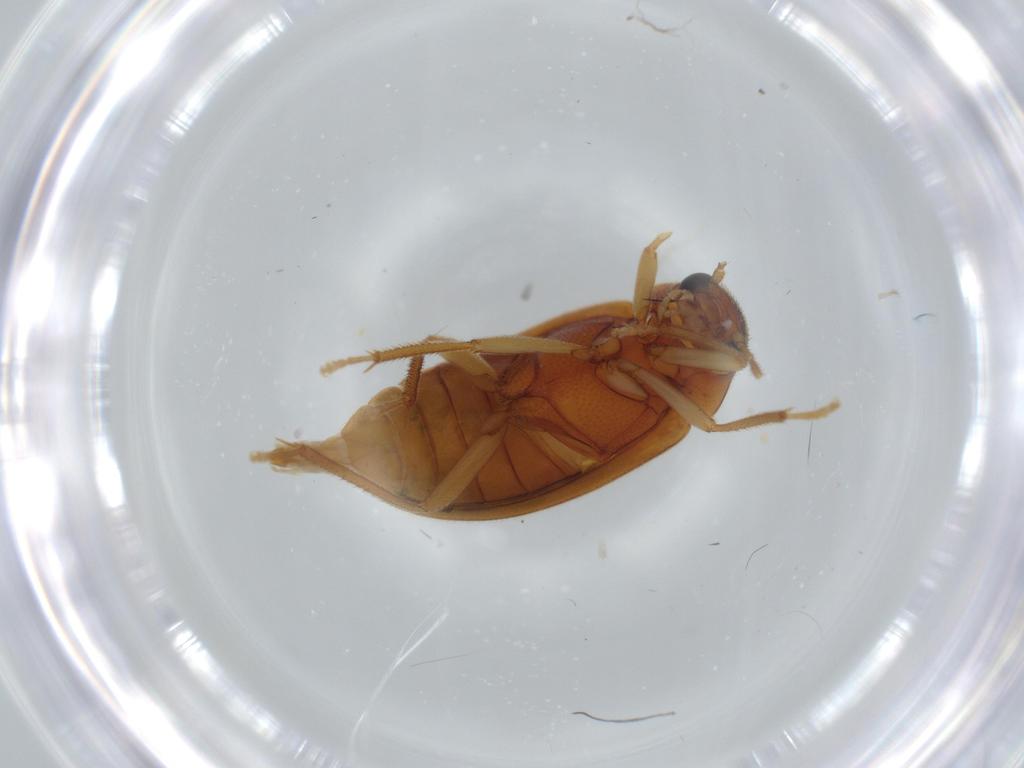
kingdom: Animalia
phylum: Arthropoda
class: Insecta
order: Coleoptera
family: Ptilodactylidae
